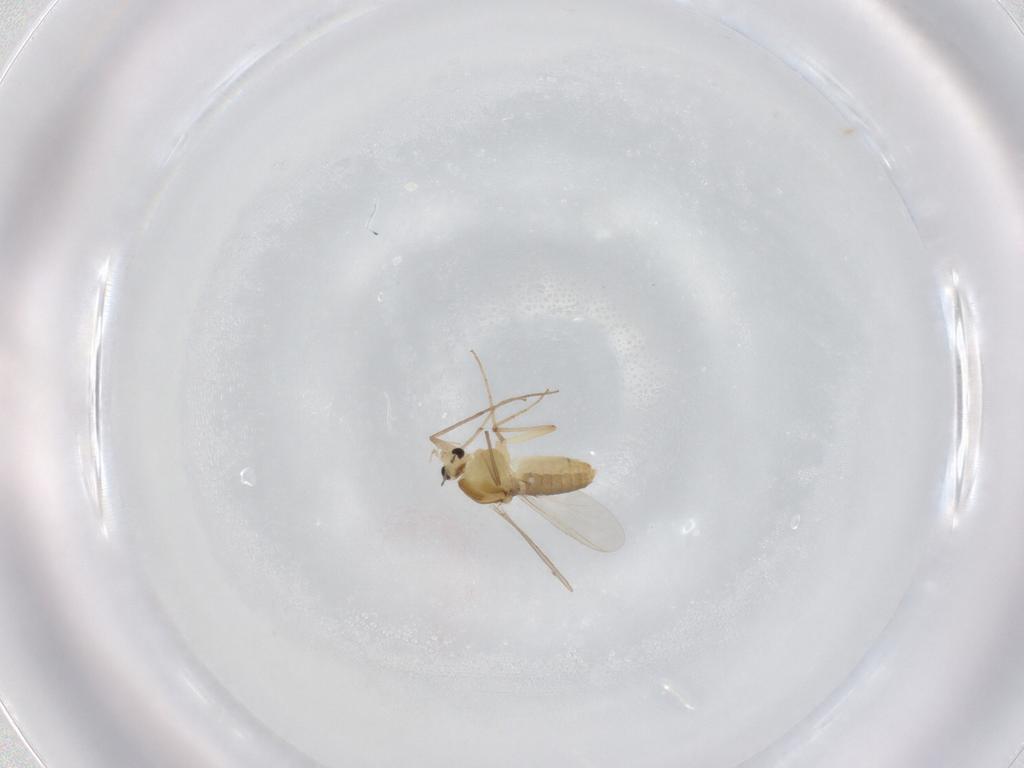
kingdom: Animalia
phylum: Arthropoda
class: Insecta
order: Diptera
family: Chironomidae
